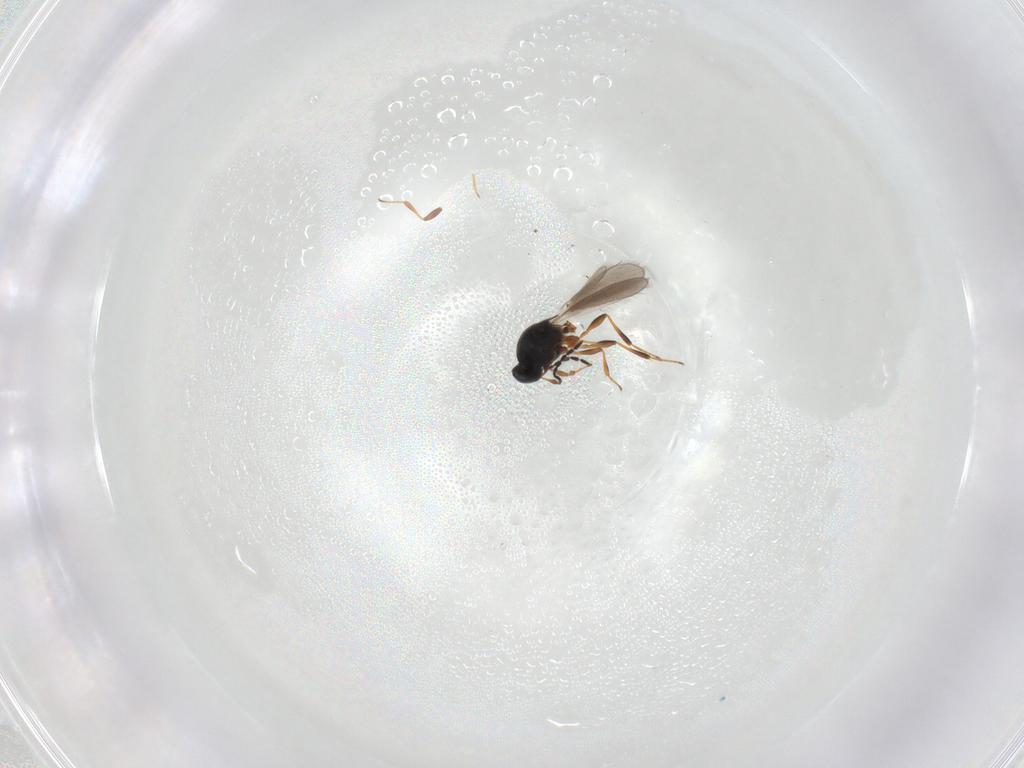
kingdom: Animalia
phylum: Arthropoda
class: Insecta
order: Hymenoptera
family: Platygastridae
